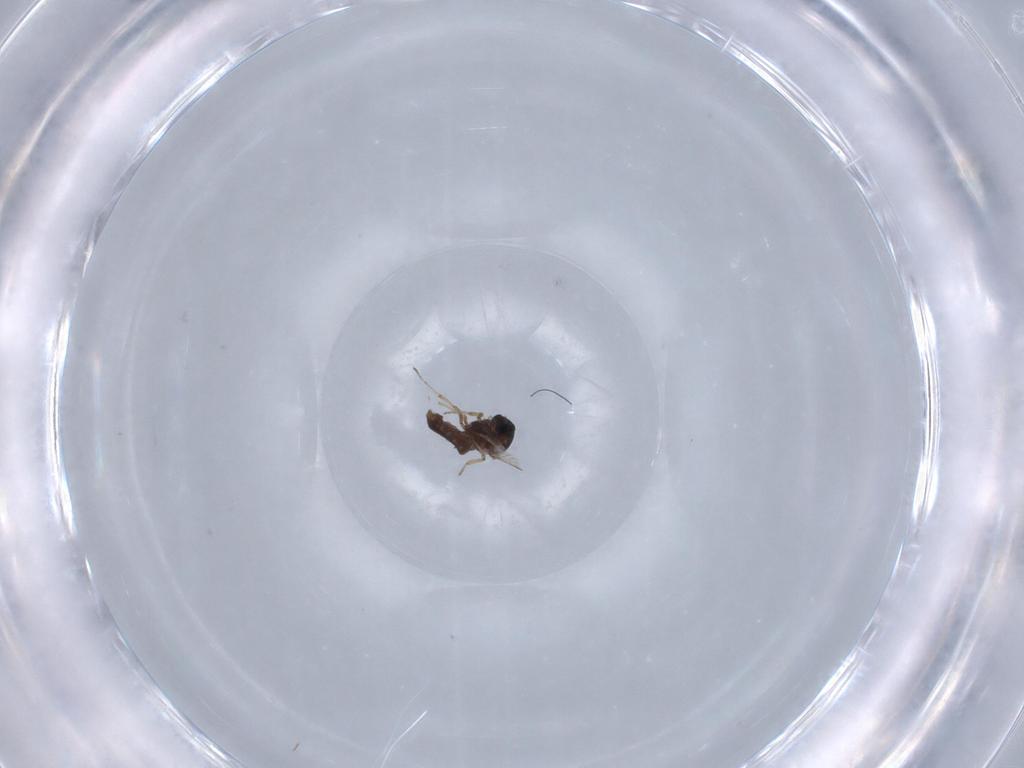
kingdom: Animalia
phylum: Arthropoda
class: Insecta
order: Diptera
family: Ceratopogonidae
